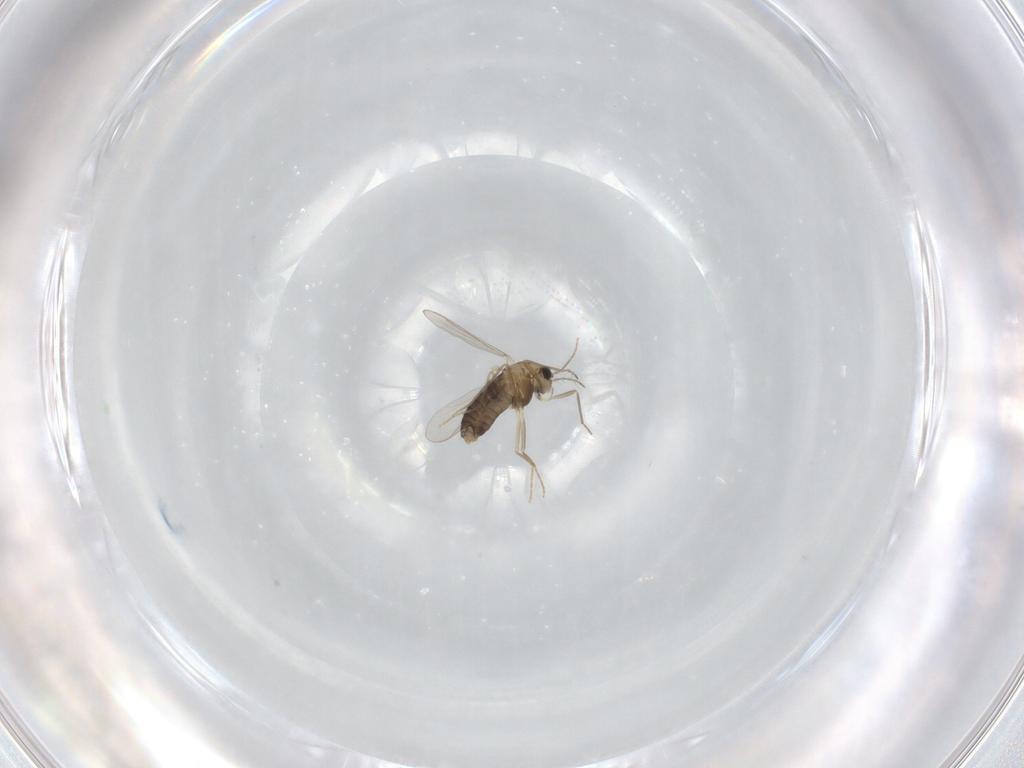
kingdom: Animalia
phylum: Arthropoda
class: Insecta
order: Diptera
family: Chironomidae
